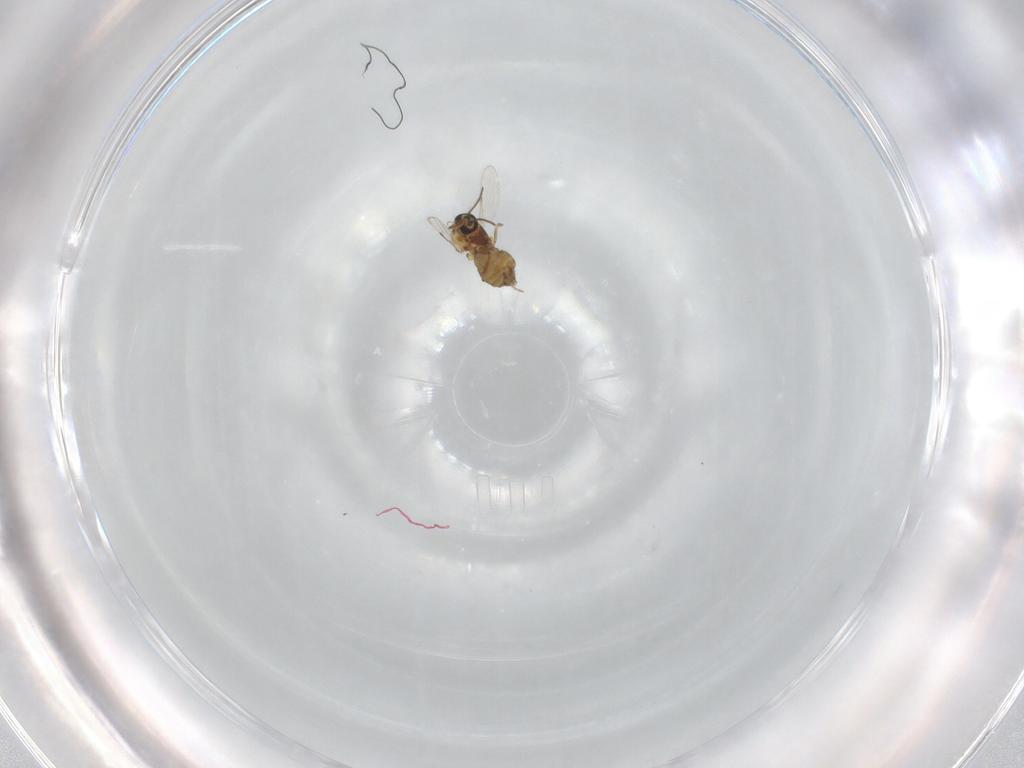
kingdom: Animalia
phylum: Arthropoda
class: Insecta
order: Diptera
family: Ceratopogonidae
